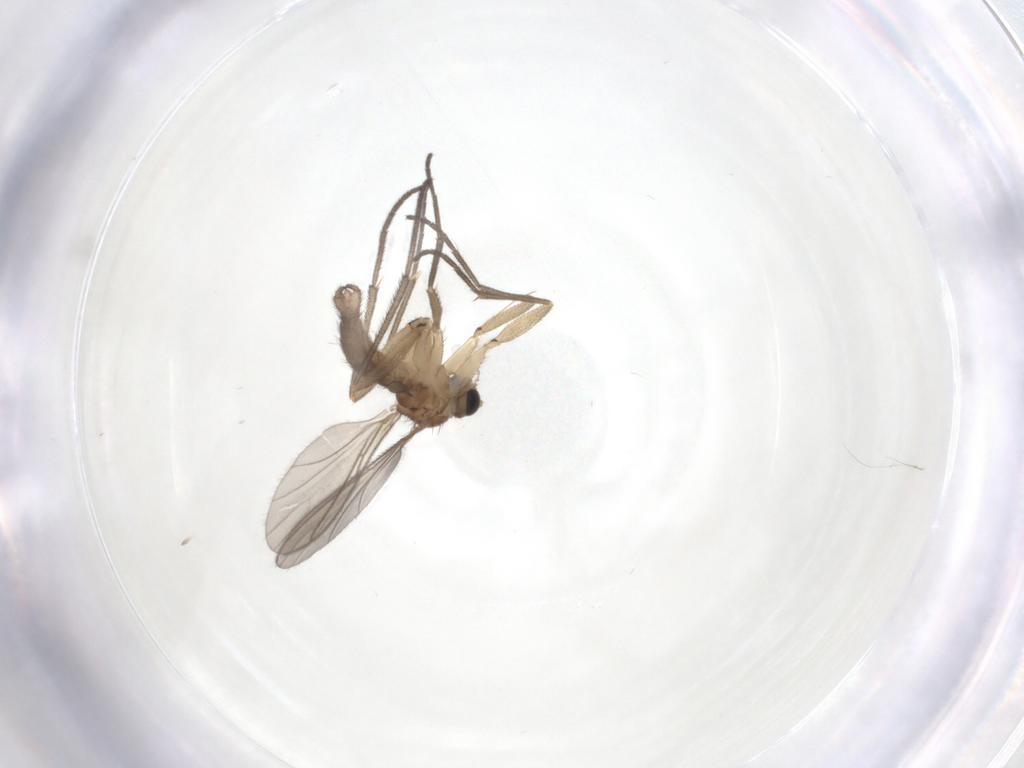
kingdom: Animalia
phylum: Arthropoda
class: Insecta
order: Diptera
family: Sciaridae
